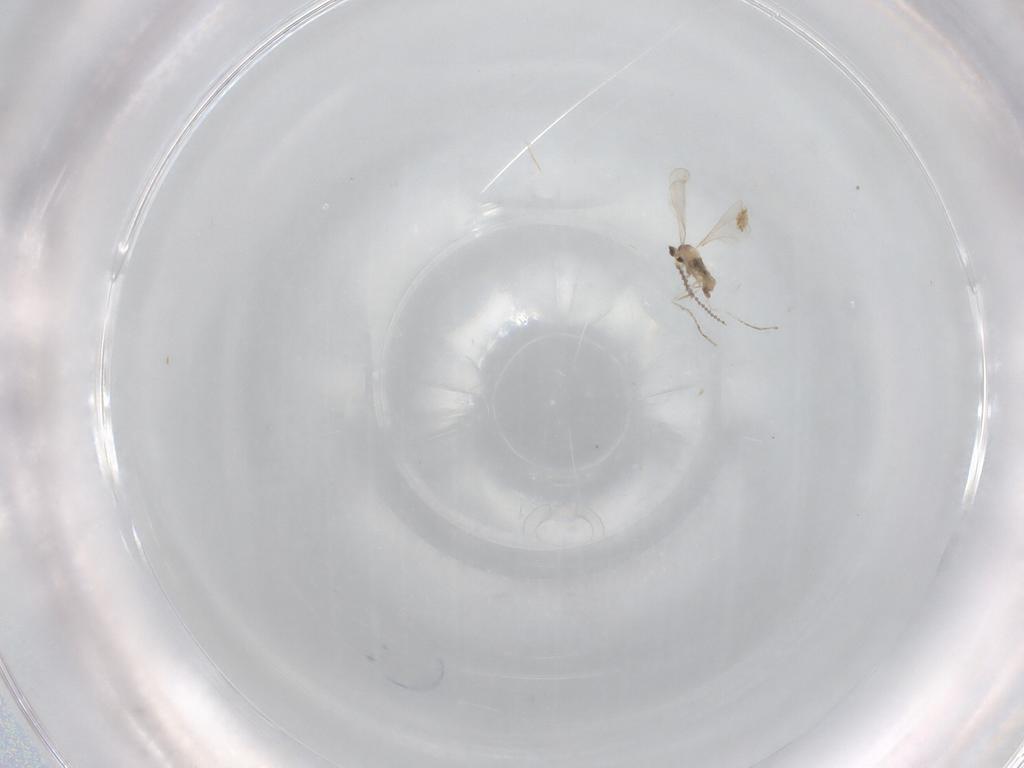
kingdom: Animalia
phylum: Arthropoda
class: Insecta
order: Diptera
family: Cecidomyiidae
